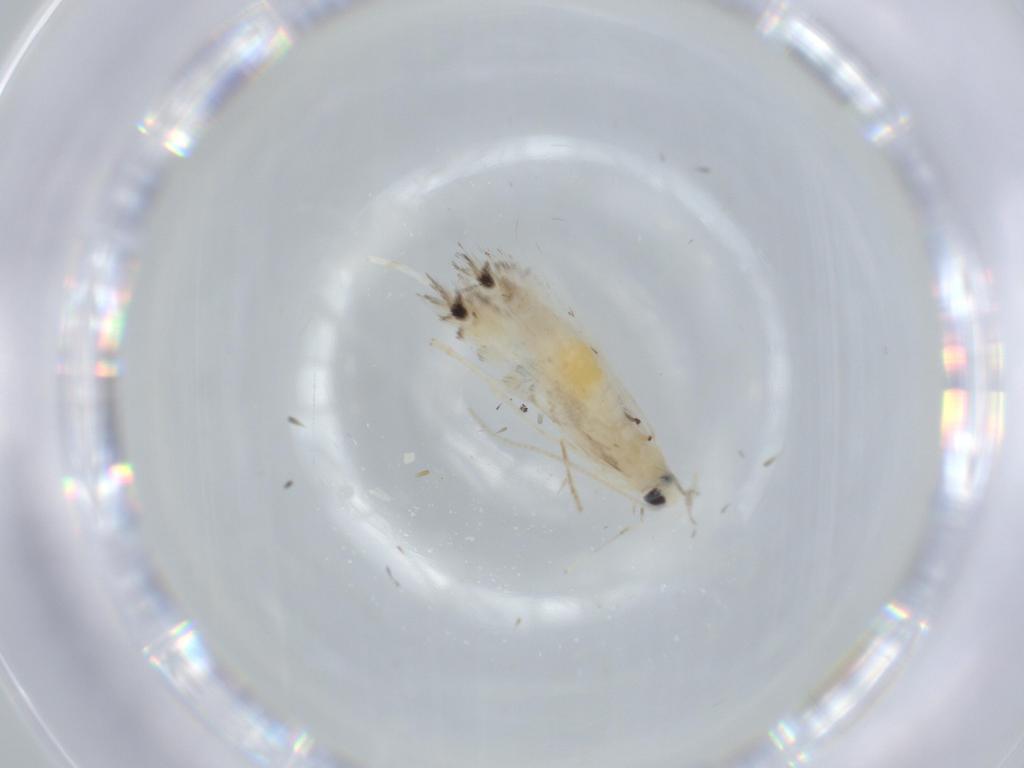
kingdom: Animalia
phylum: Arthropoda
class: Insecta
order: Lepidoptera
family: Gracillariidae
